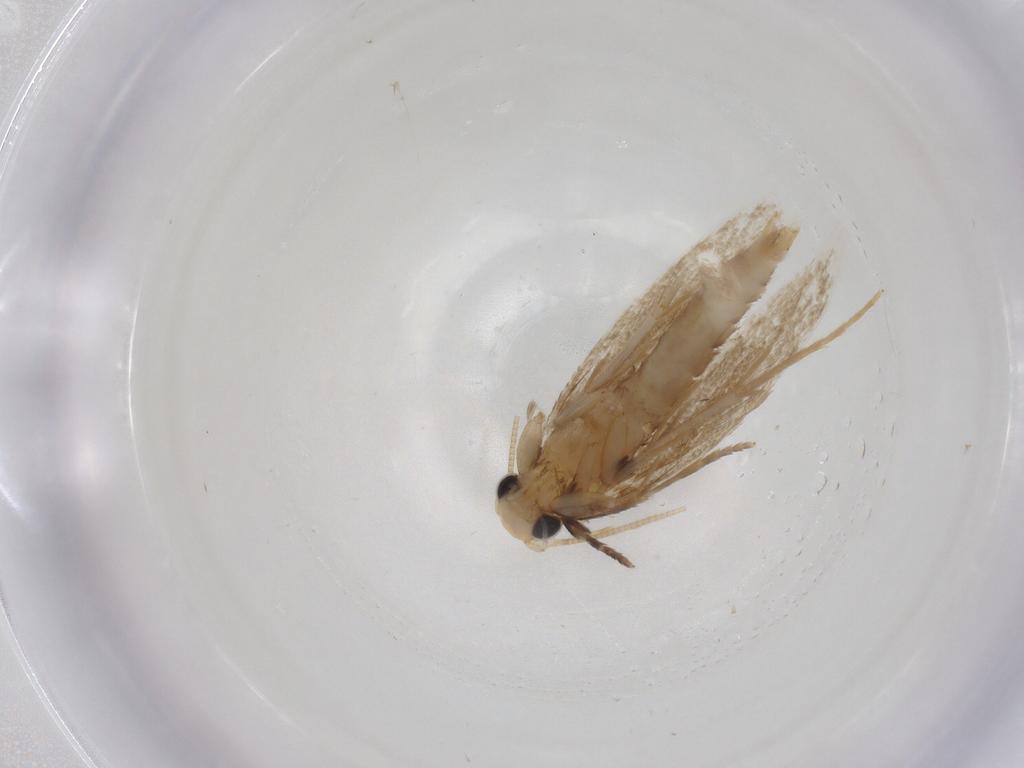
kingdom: Animalia
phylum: Arthropoda
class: Insecta
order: Lepidoptera
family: Tineidae
